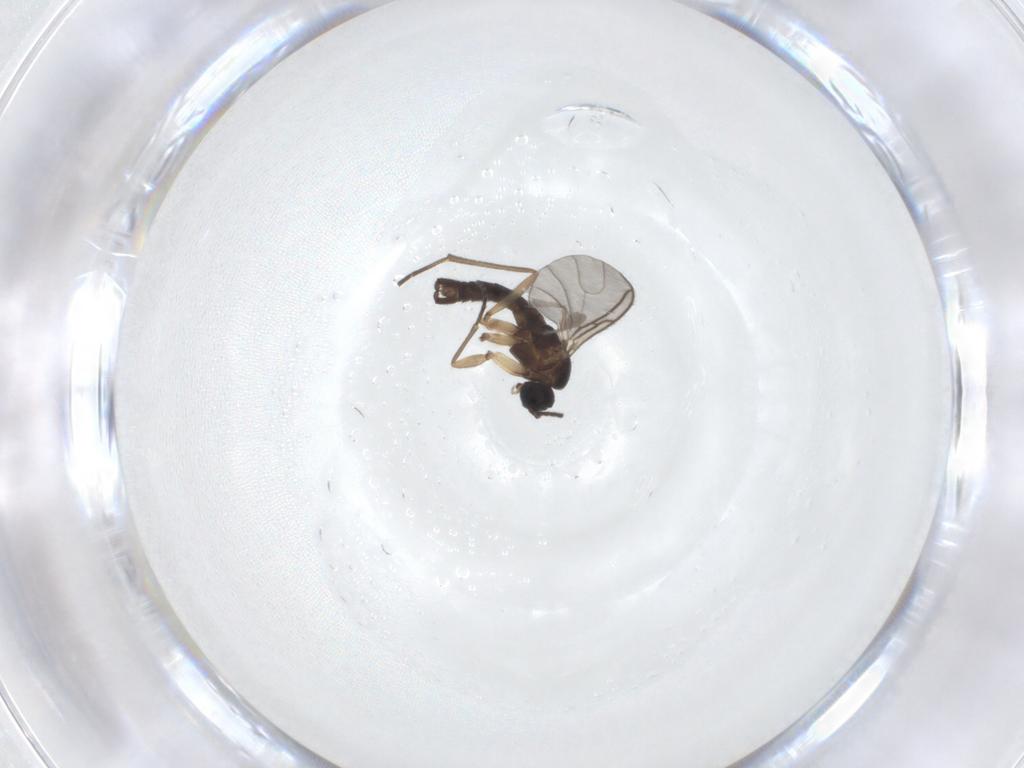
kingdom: Animalia
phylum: Arthropoda
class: Insecta
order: Diptera
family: Sciaridae
